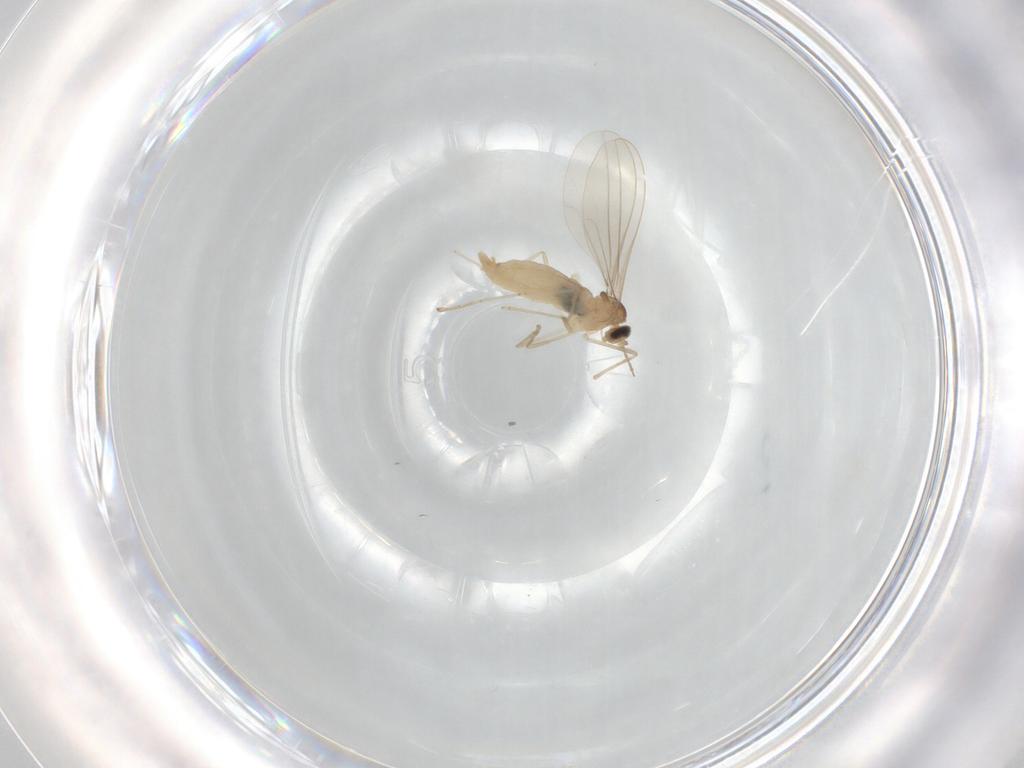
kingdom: Animalia
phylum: Arthropoda
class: Insecta
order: Diptera
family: Cecidomyiidae
